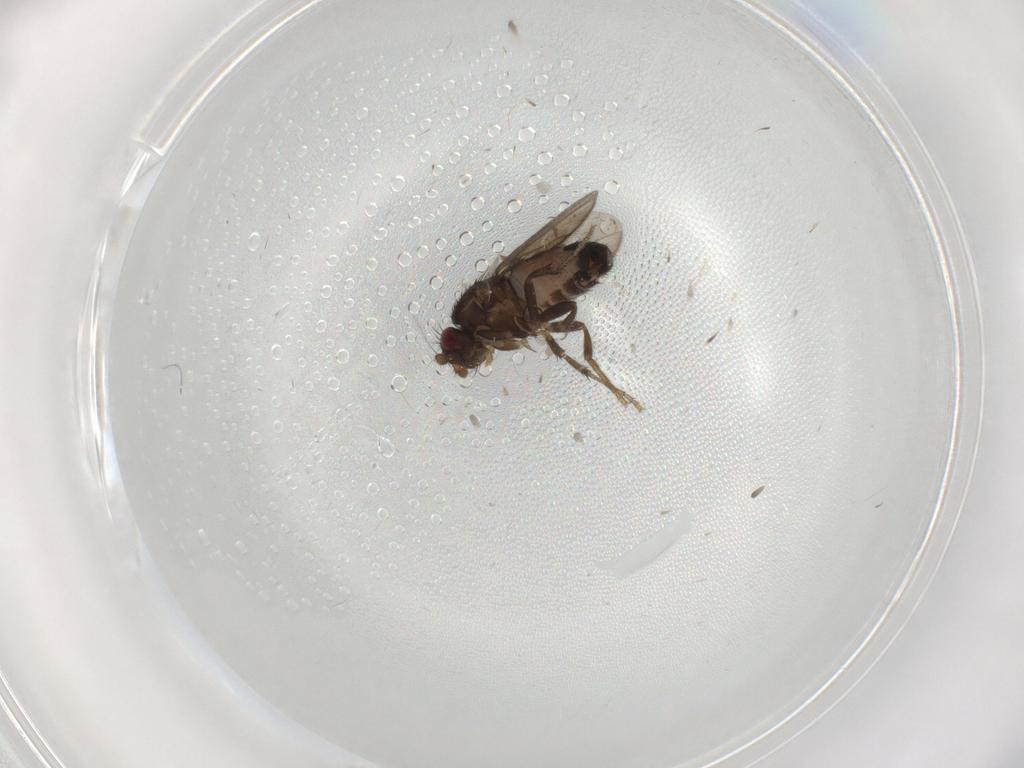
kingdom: Animalia
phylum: Arthropoda
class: Insecta
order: Diptera
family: Sphaeroceridae
